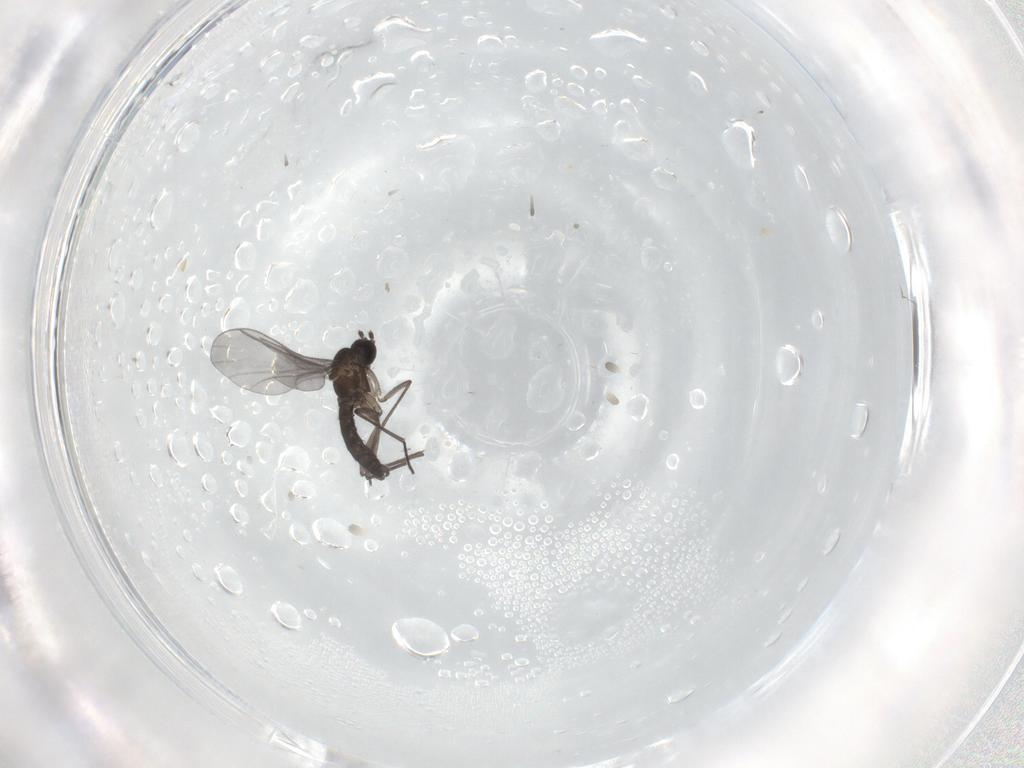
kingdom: Animalia
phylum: Arthropoda
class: Insecta
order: Diptera
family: Sciaridae
